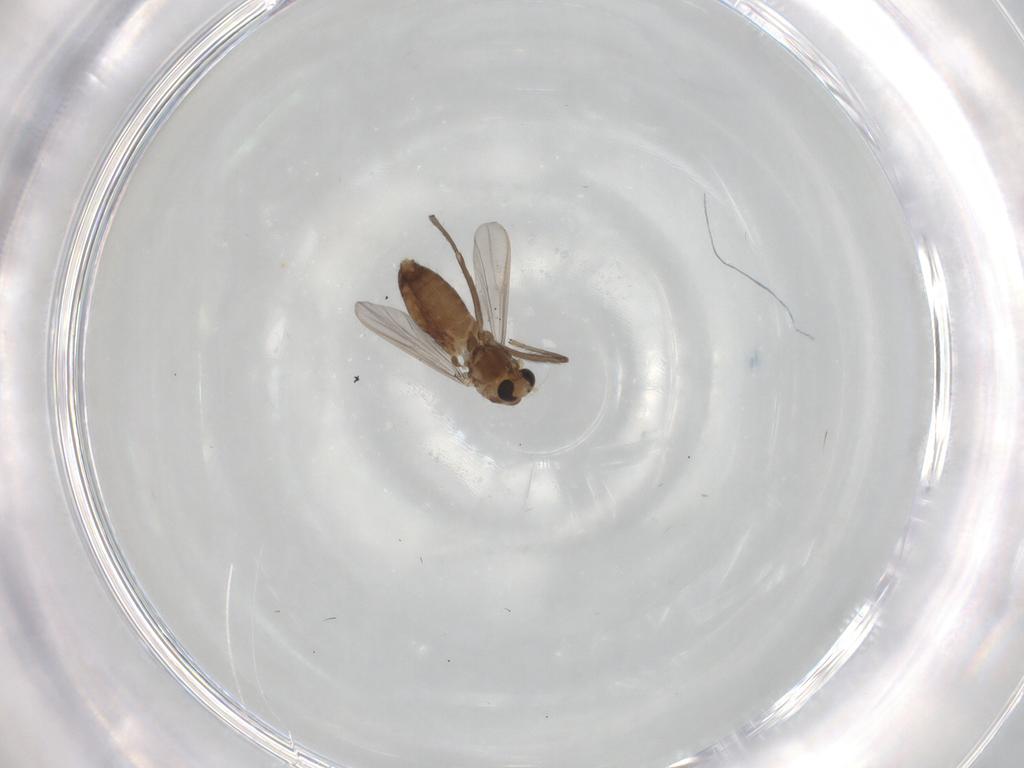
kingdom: Animalia
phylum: Arthropoda
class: Insecta
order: Diptera
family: Chironomidae
